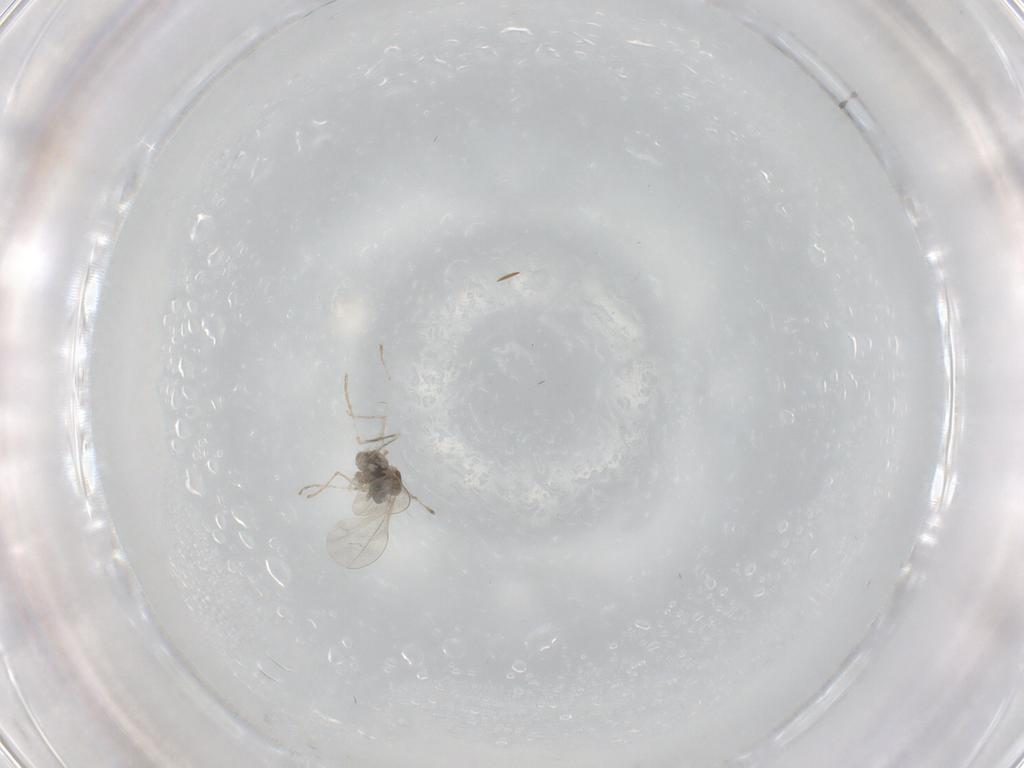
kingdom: Animalia
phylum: Arthropoda
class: Insecta
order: Diptera
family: Cecidomyiidae
